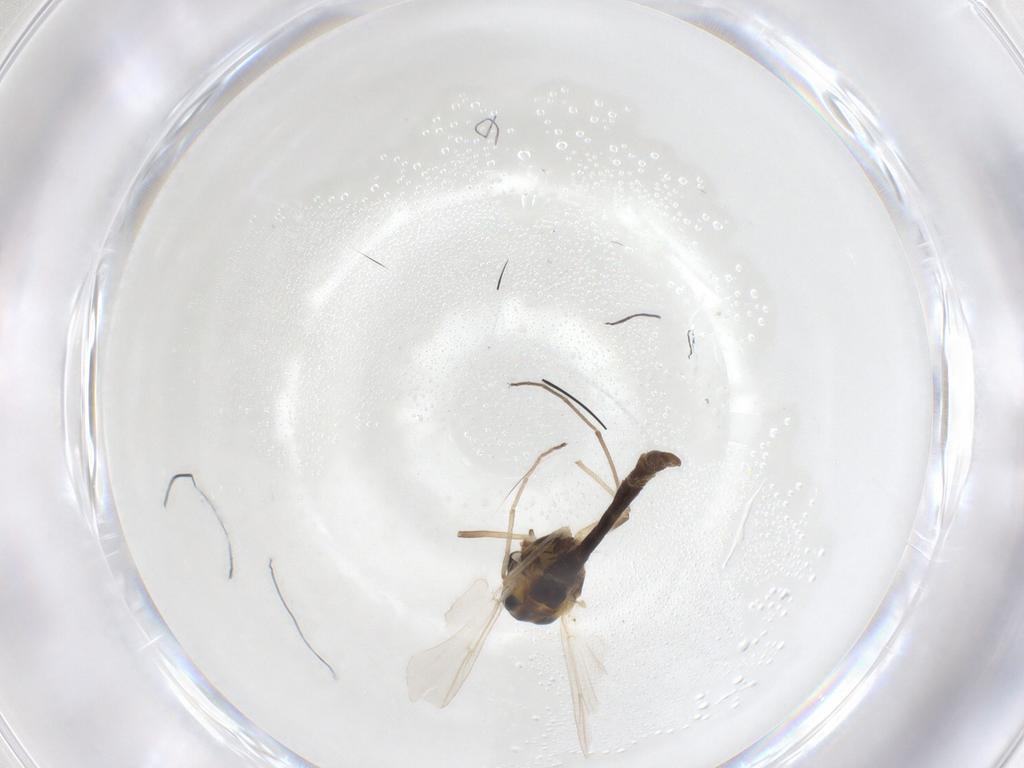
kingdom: Animalia
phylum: Arthropoda
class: Insecta
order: Diptera
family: Chironomidae
